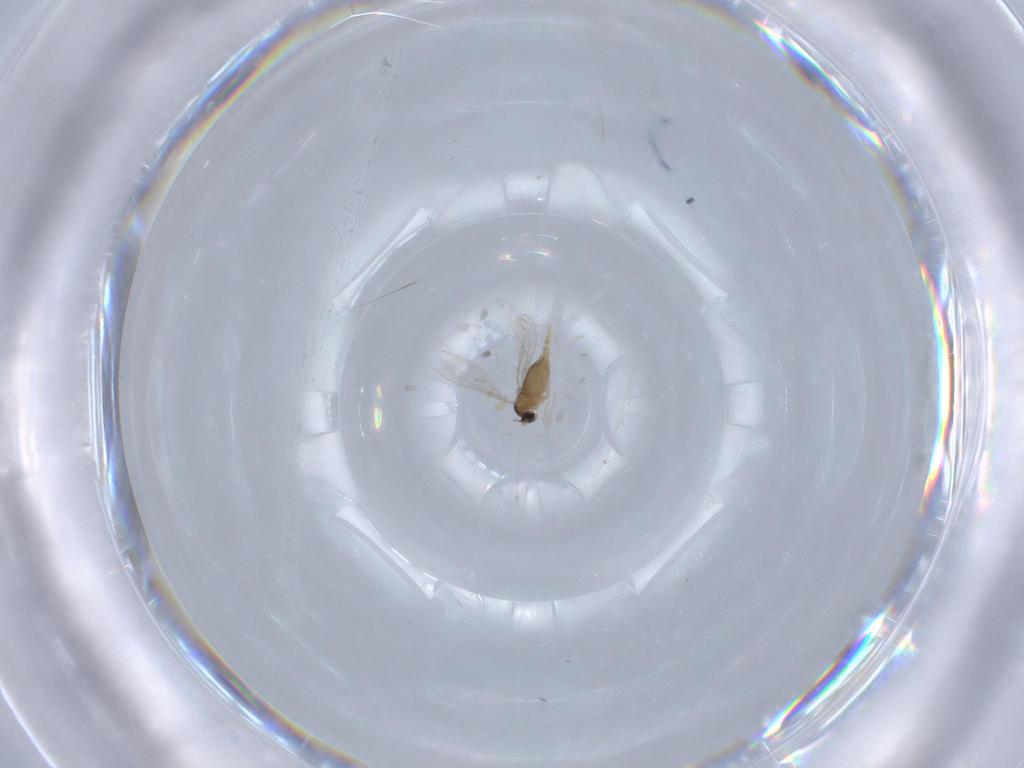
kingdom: Animalia
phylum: Arthropoda
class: Insecta
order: Diptera
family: Cecidomyiidae
